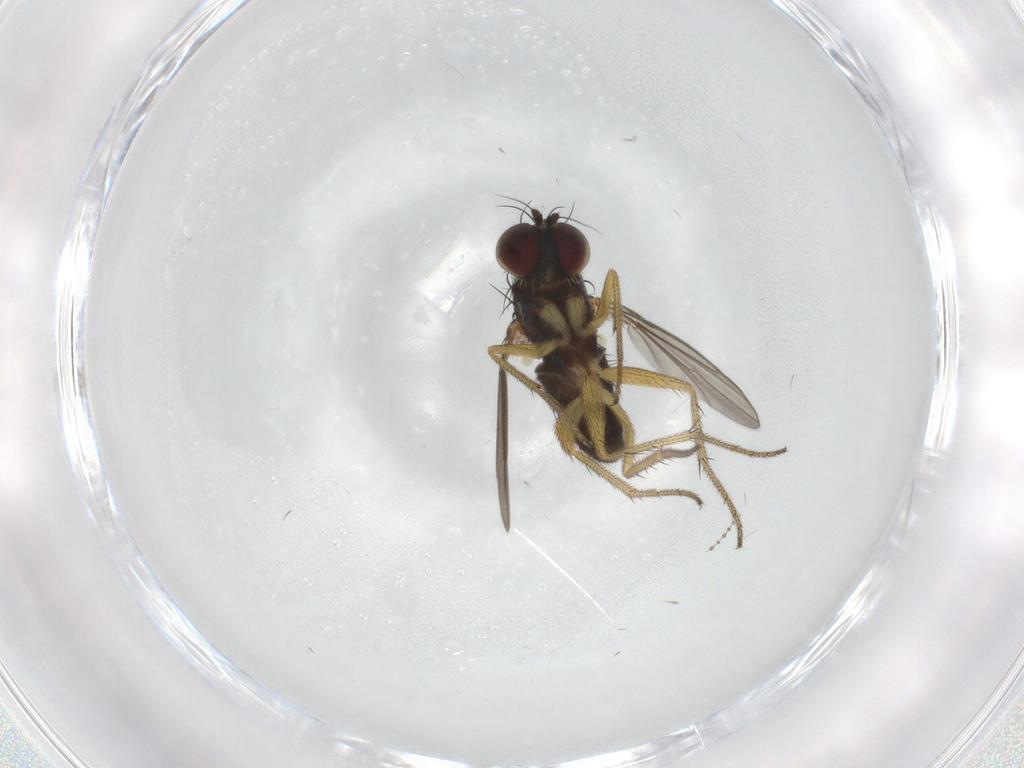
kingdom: Animalia
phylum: Arthropoda
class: Insecta
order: Diptera
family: Dolichopodidae
